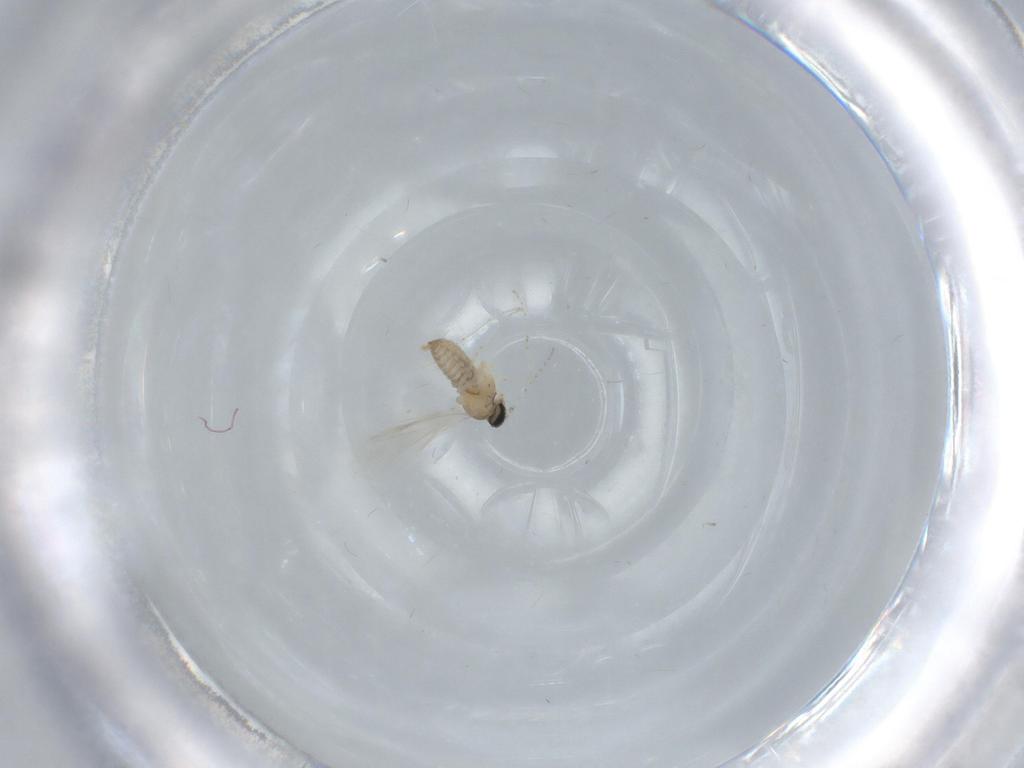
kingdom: Animalia
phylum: Arthropoda
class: Insecta
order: Diptera
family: Cecidomyiidae
